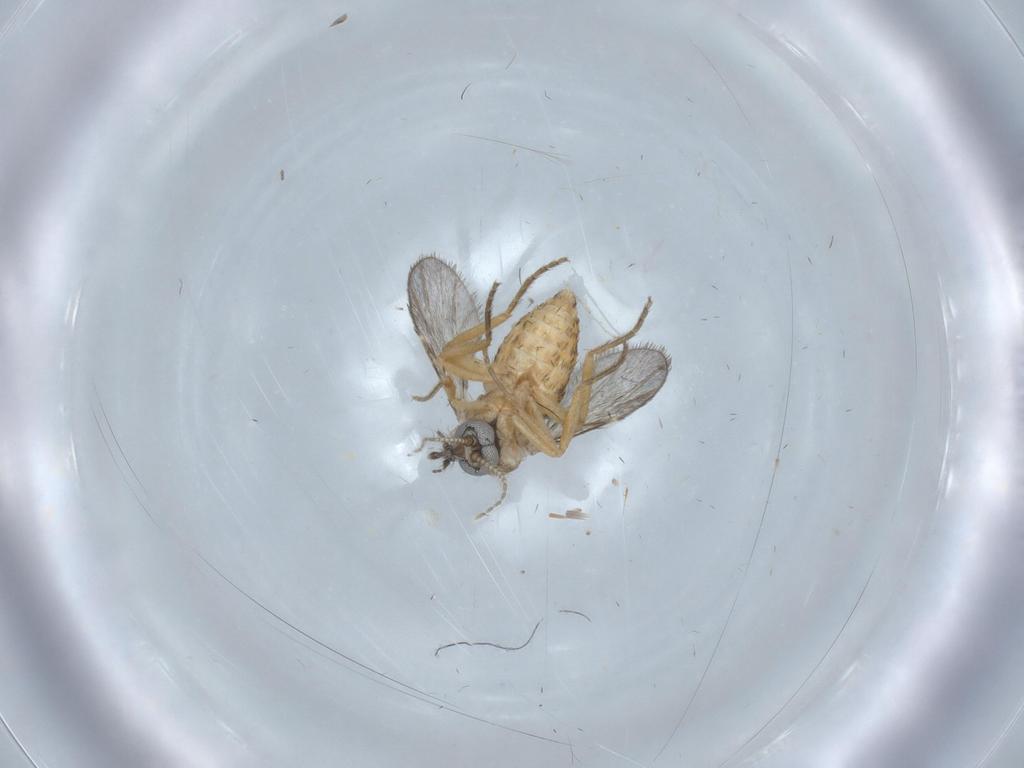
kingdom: Animalia
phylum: Arthropoda
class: Insecta
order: Diptera
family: Ceratopogonidae
